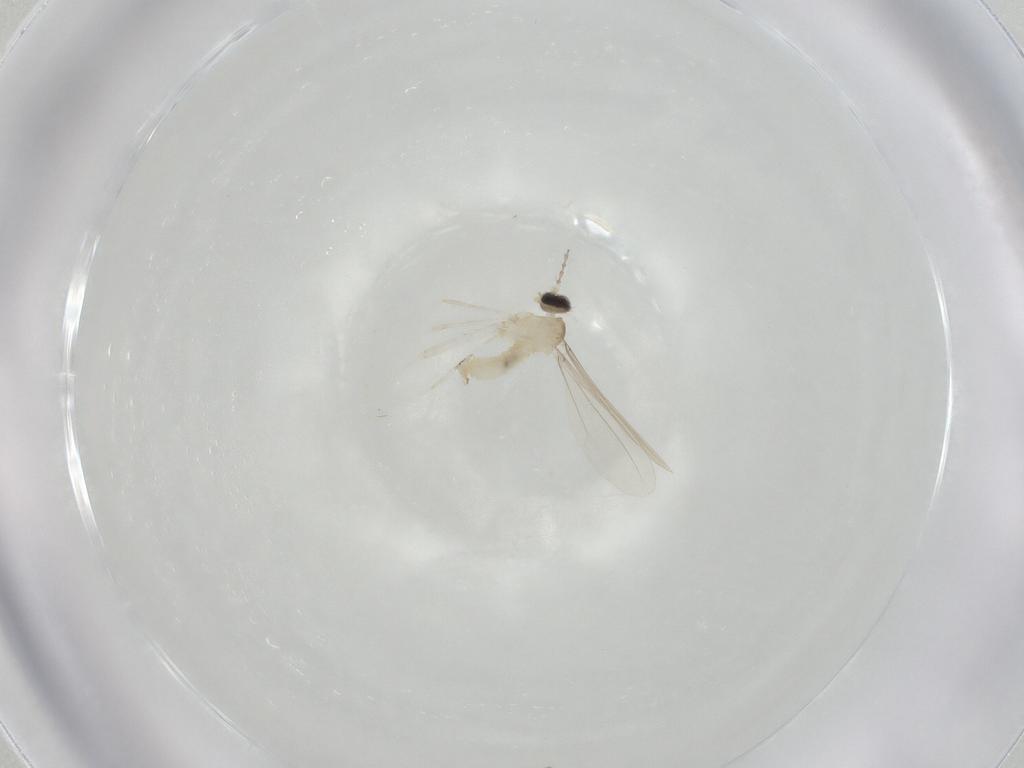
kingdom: Animalia
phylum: Arthropoda
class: Insecta
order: Diptera
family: Cecidomyiidae
